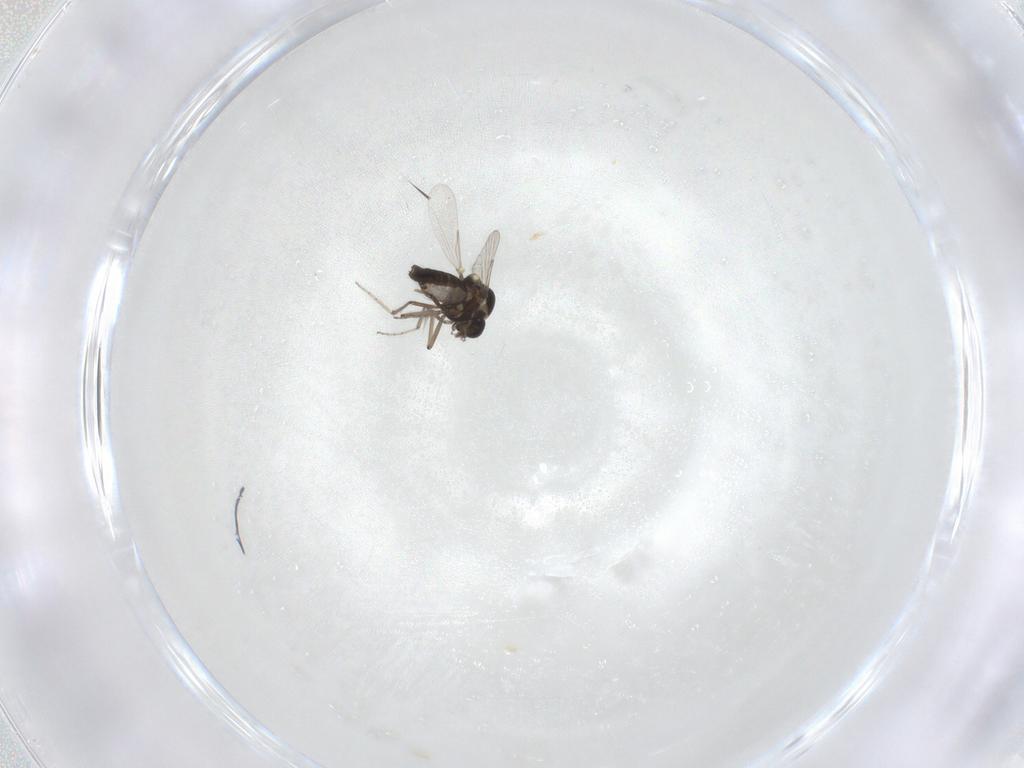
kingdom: Animalia
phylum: Arthropoda
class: Insecta
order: Diptera
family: Ceratopogonidae
